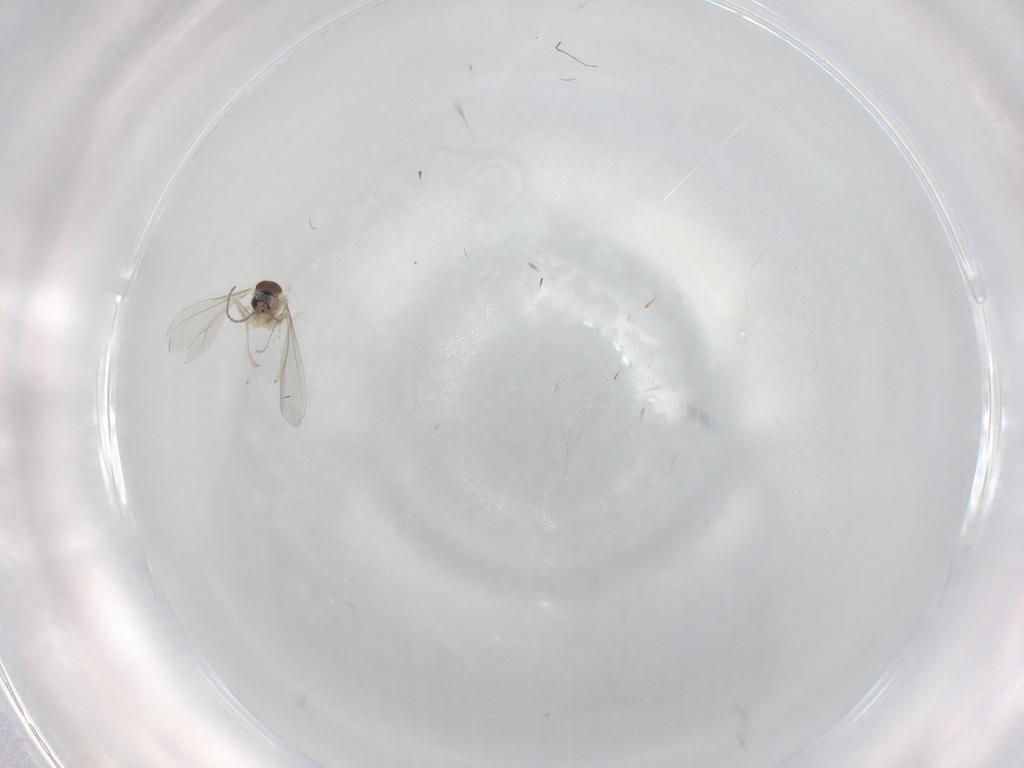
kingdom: Animalia
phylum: Arthropoda
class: Insecta
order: Diptera
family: Cecidomyiidae
